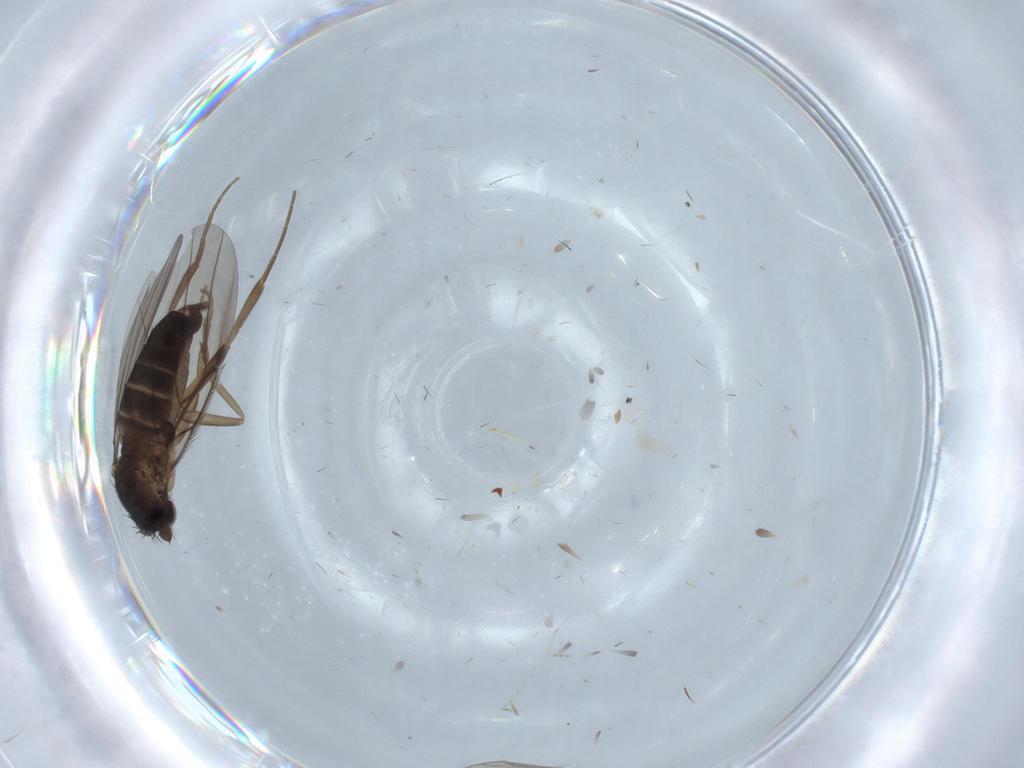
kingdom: Animalia
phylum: Arthropoda
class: Insecta
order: Diptera
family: Phoridae
